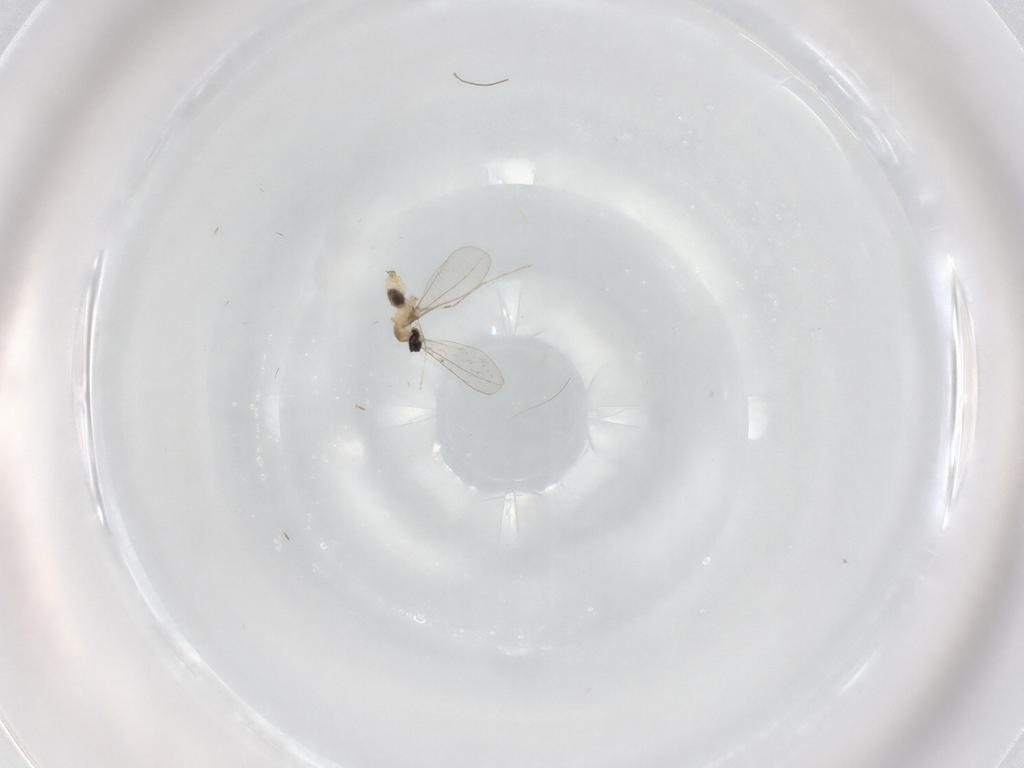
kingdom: Animalia
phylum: Arthropoda
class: Insecta
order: Diptera
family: Cecidomyiidae
